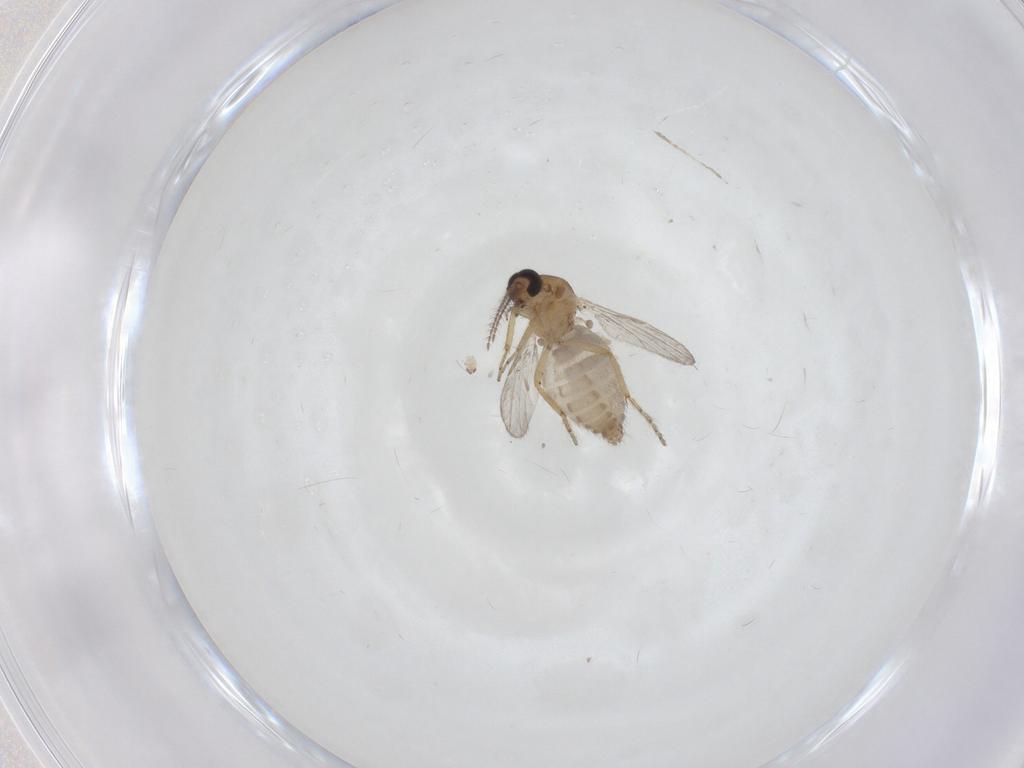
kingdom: Animalia
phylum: Arthropoda
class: Insecta
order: Diptera
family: Ceratopogonidae
